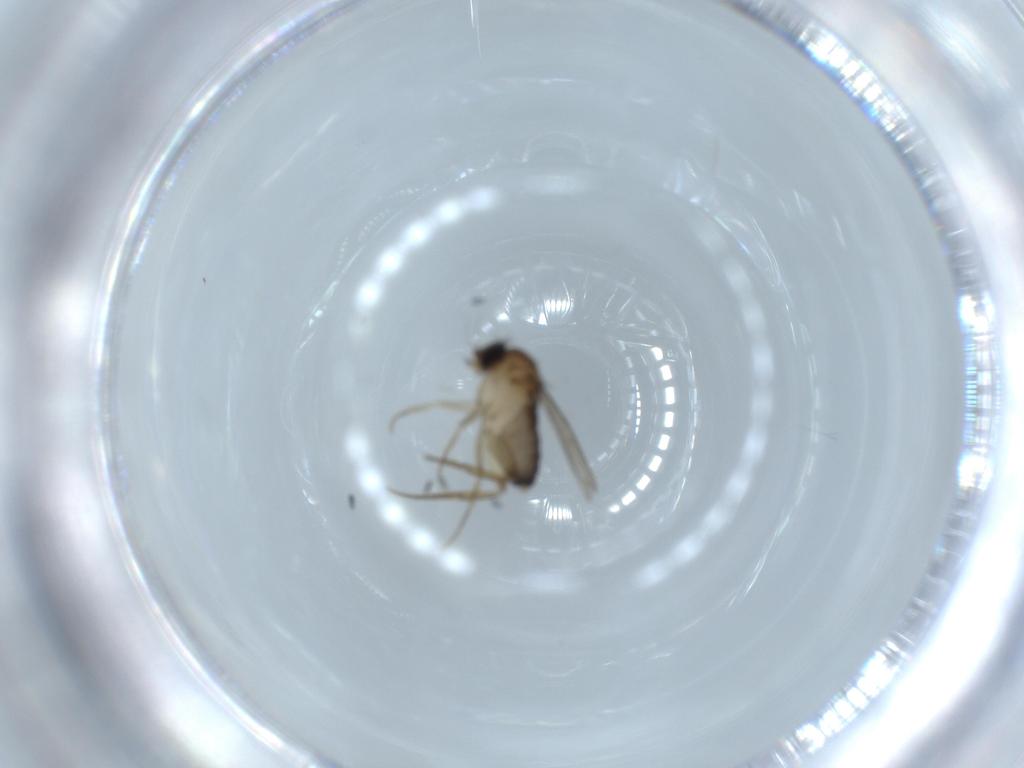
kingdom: Animalia
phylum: Arthropoda
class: Insecta
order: Diptera
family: Phoridae
